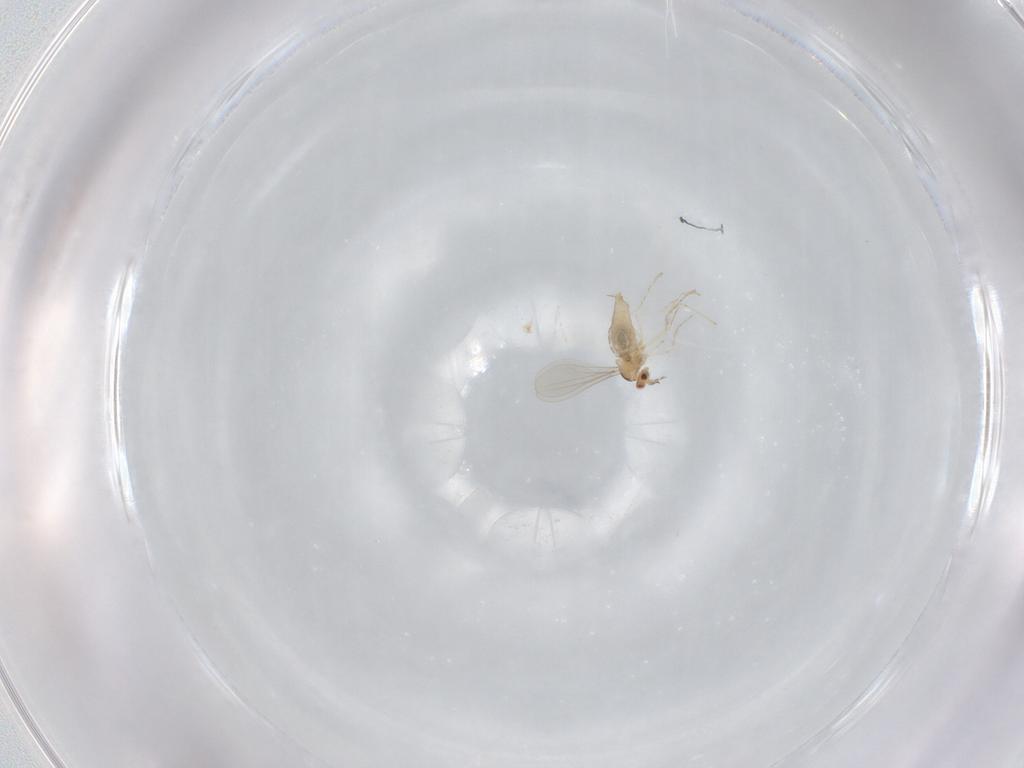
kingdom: Animalia
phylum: Arthropoda
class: Insecta
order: Diptera
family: Cecidomyiidae
